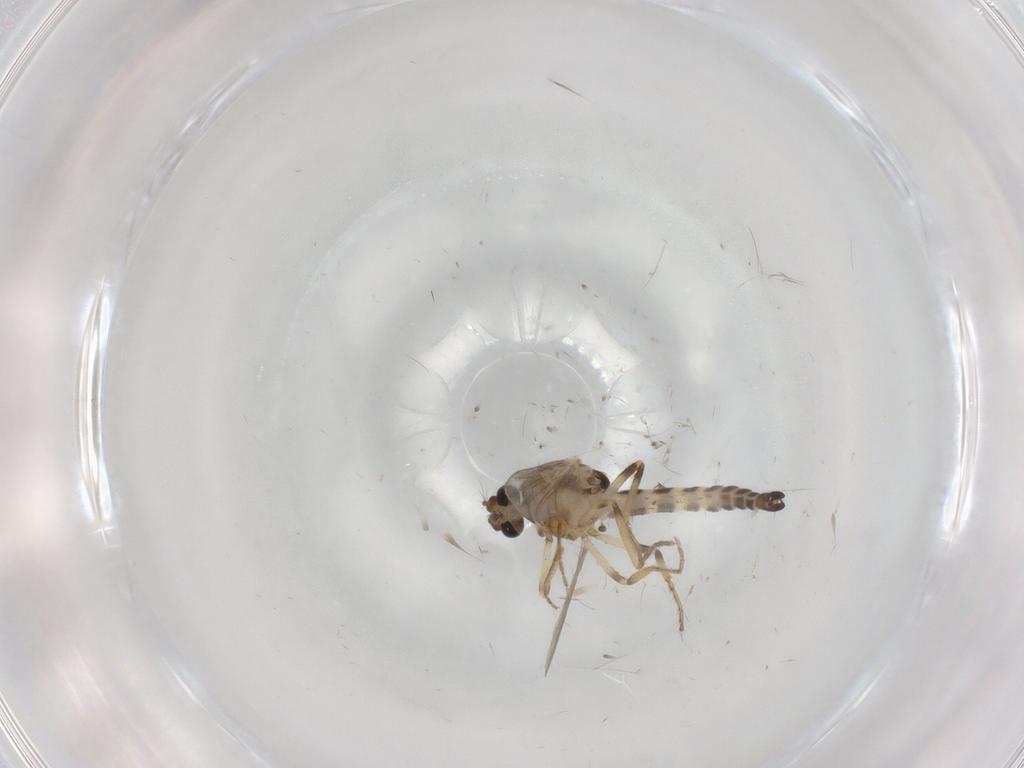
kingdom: Animalia
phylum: Arthropoda
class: Insecta
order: Diptera
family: Ceratopogonidae
